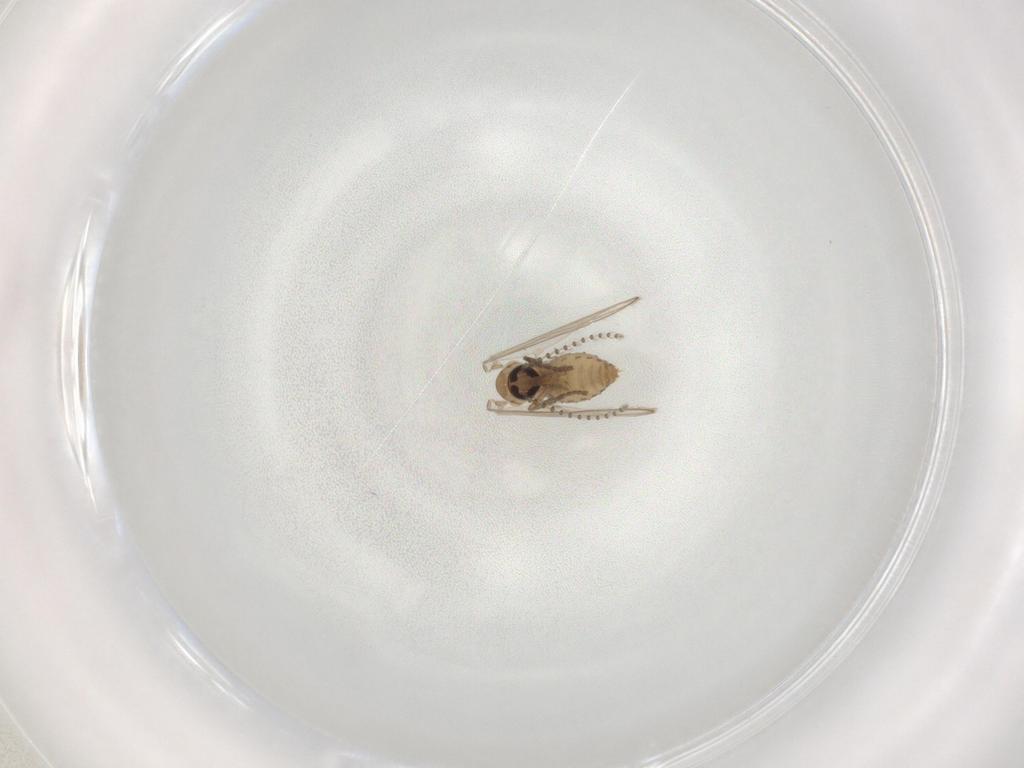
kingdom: Animalia
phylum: Arthropoda
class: Insecta
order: Diptera
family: Psychodidae
